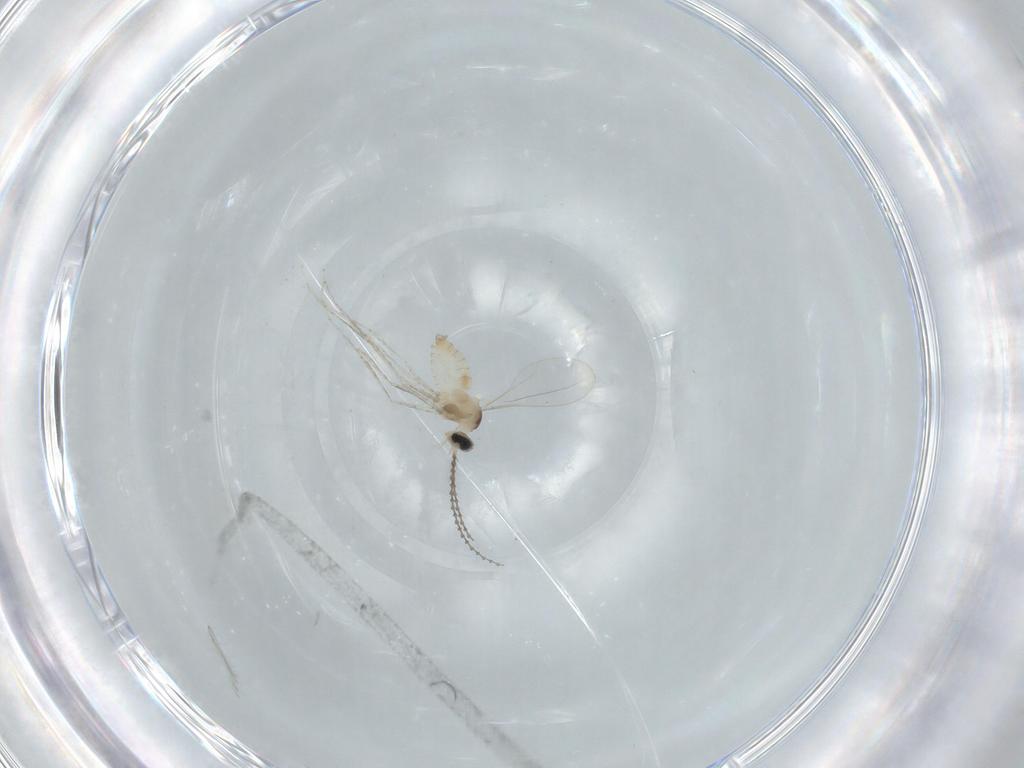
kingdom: Animalia
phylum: Arthropoda
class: Insecta
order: Diptera
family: Cecidomyiidae
